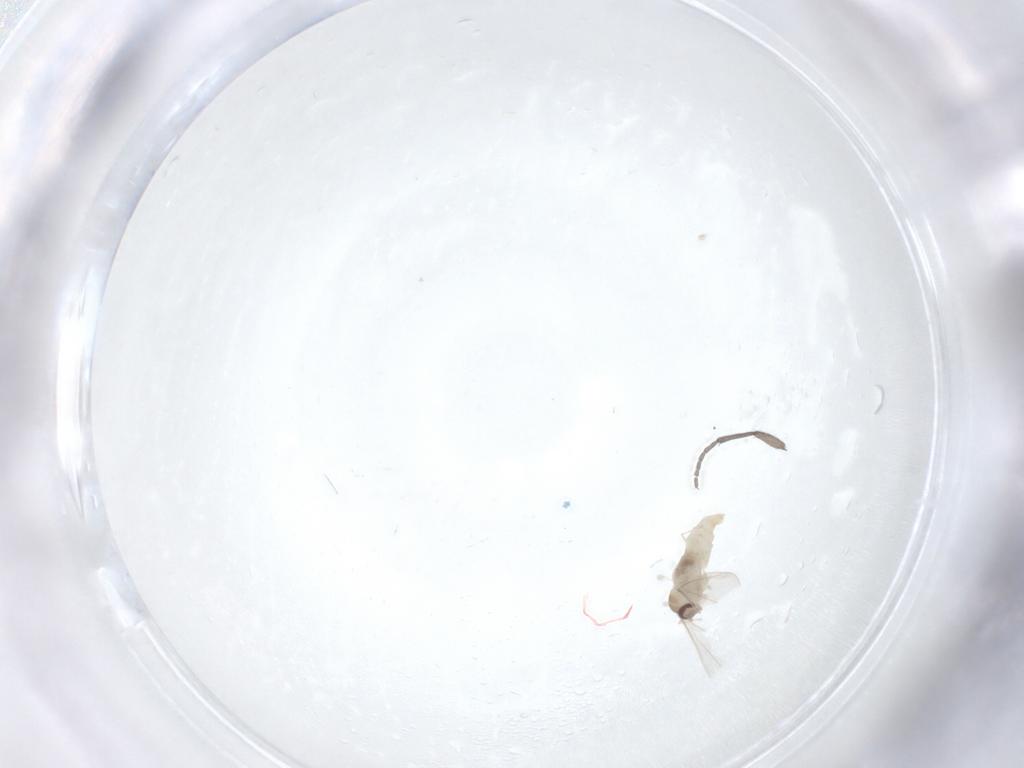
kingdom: Animalia
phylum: Arthropoda
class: Insecta
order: Diptera
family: Cecidomyiidae
